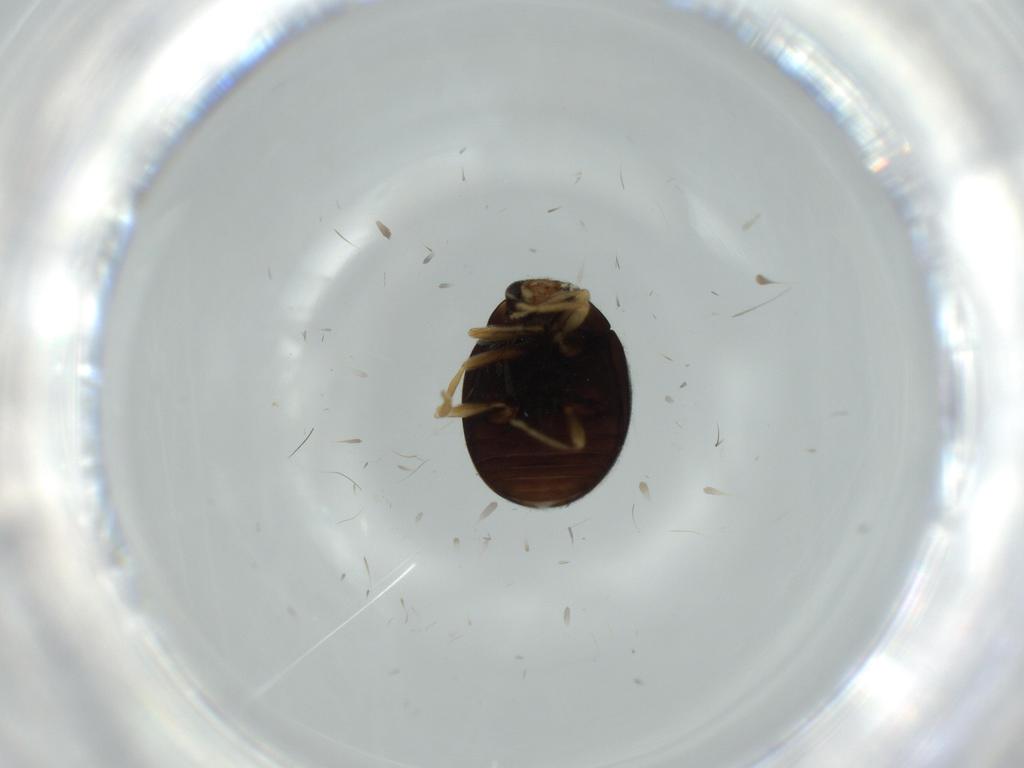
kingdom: Animalia
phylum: Arthropoda
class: Insecta
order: Coleoptera
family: Coccinellidae
